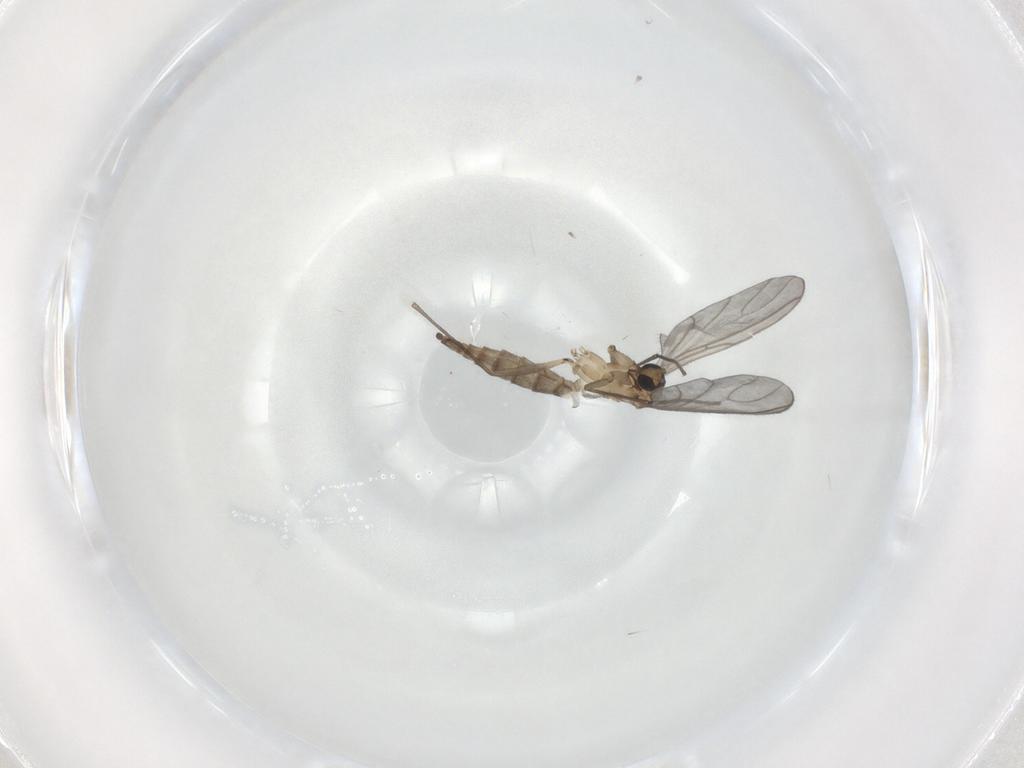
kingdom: Animalia
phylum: Arthropoda
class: Insecta
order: Diptera
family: Sciaridae
